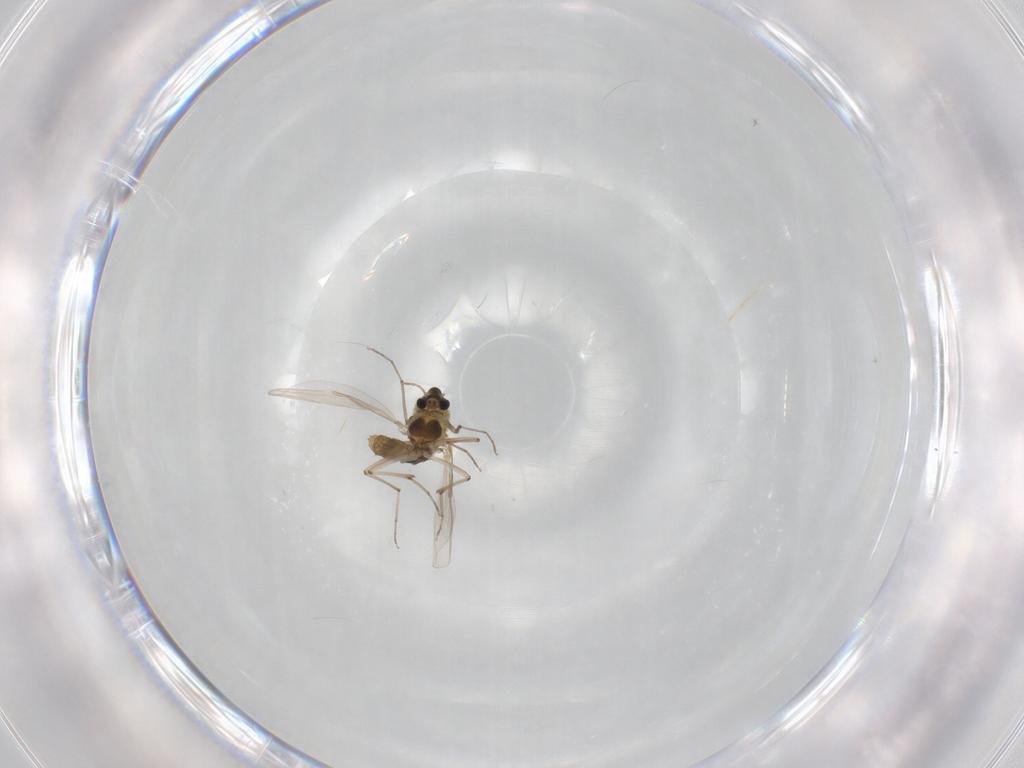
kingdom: Animalia
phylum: Arthropoda
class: Insecta
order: Diptera
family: Chironomidae
